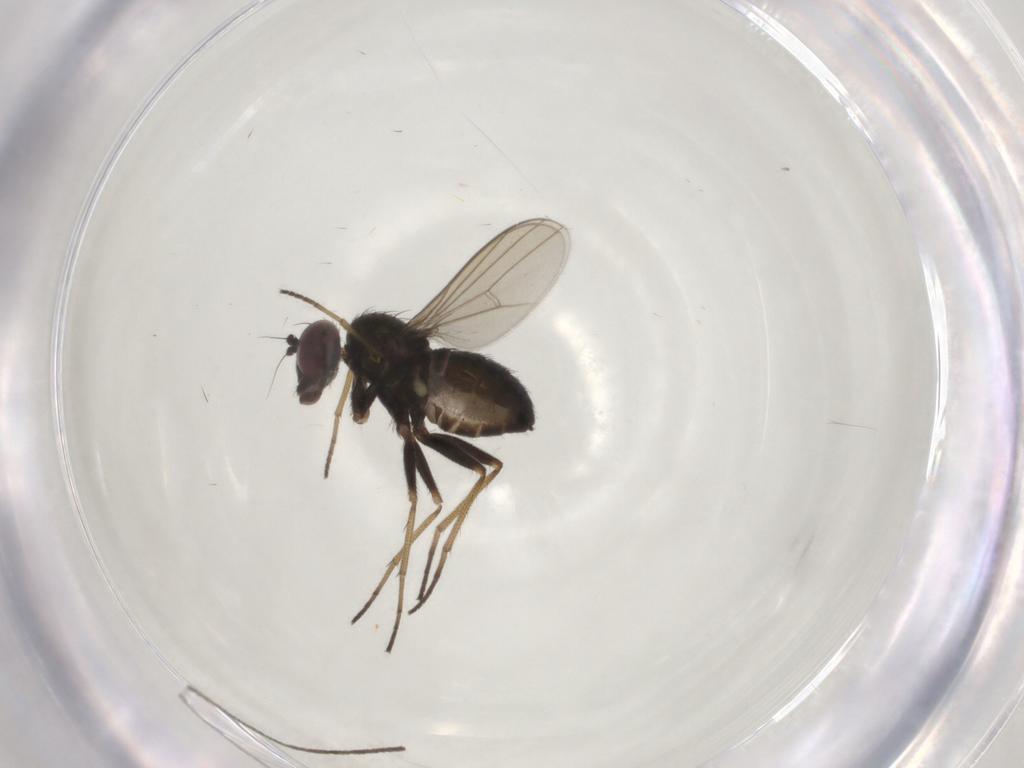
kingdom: Animalia
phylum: Arthropoda
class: Insecta
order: Diptera
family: Dolichopodidae
